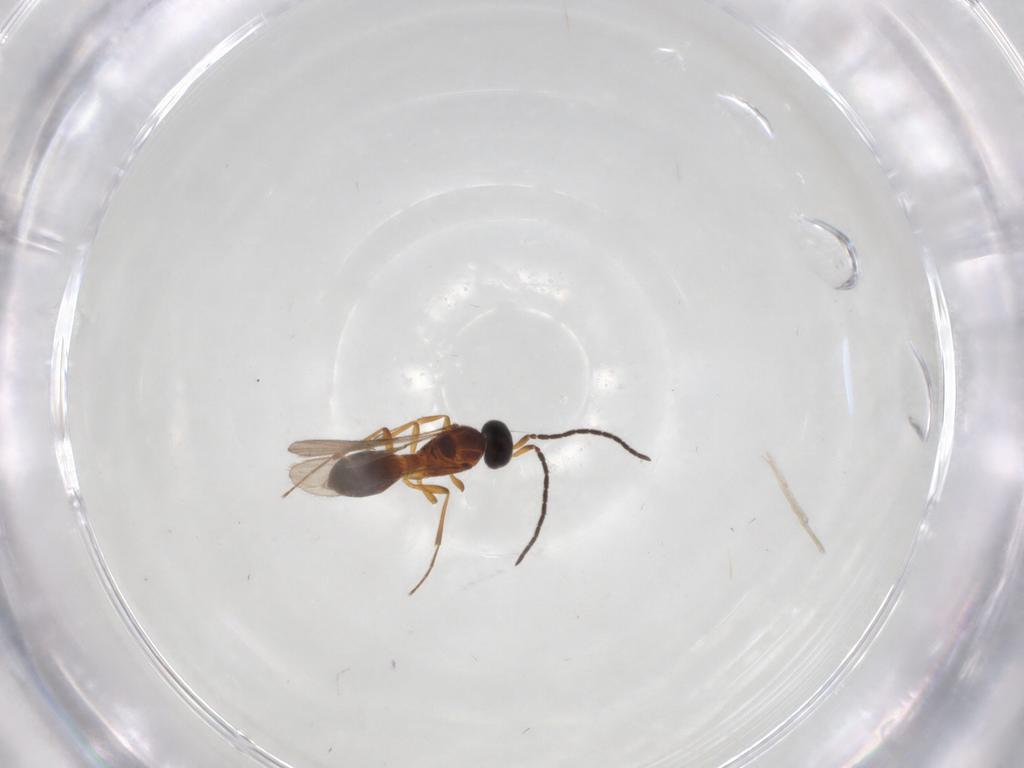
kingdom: Animalia
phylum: Arthropoda
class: Insecta
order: Hymenoptera
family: Scelionidae
